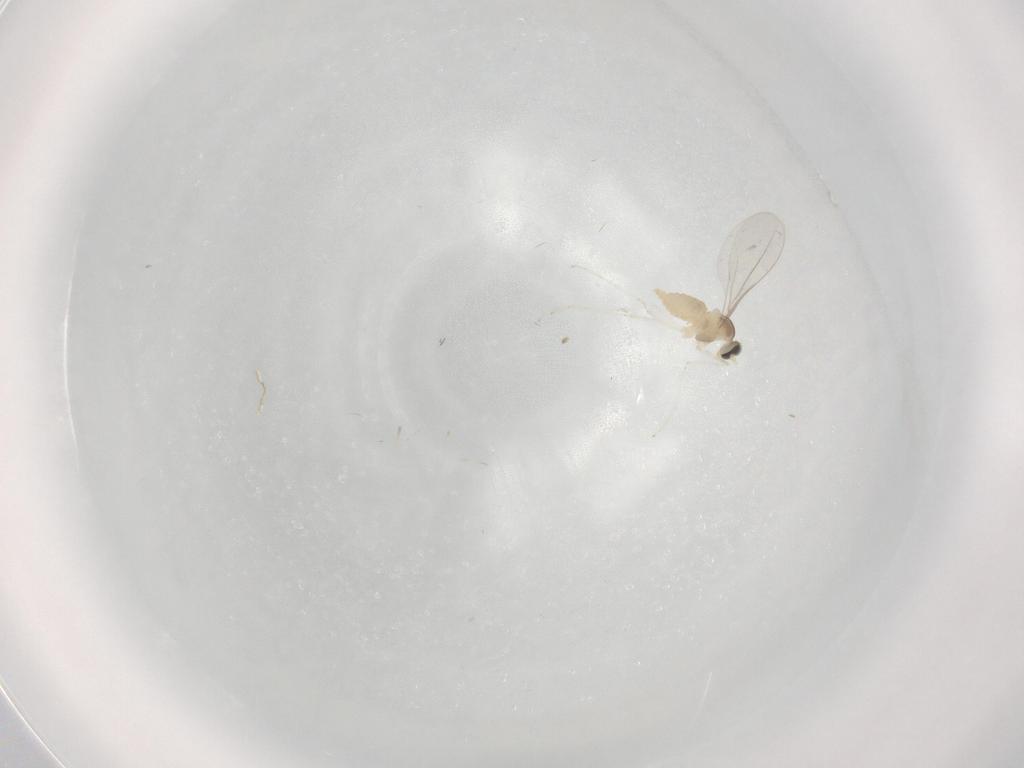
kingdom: Animalia
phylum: Arthropoda
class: Insecta
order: Diptera
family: Cecidomyiidae
